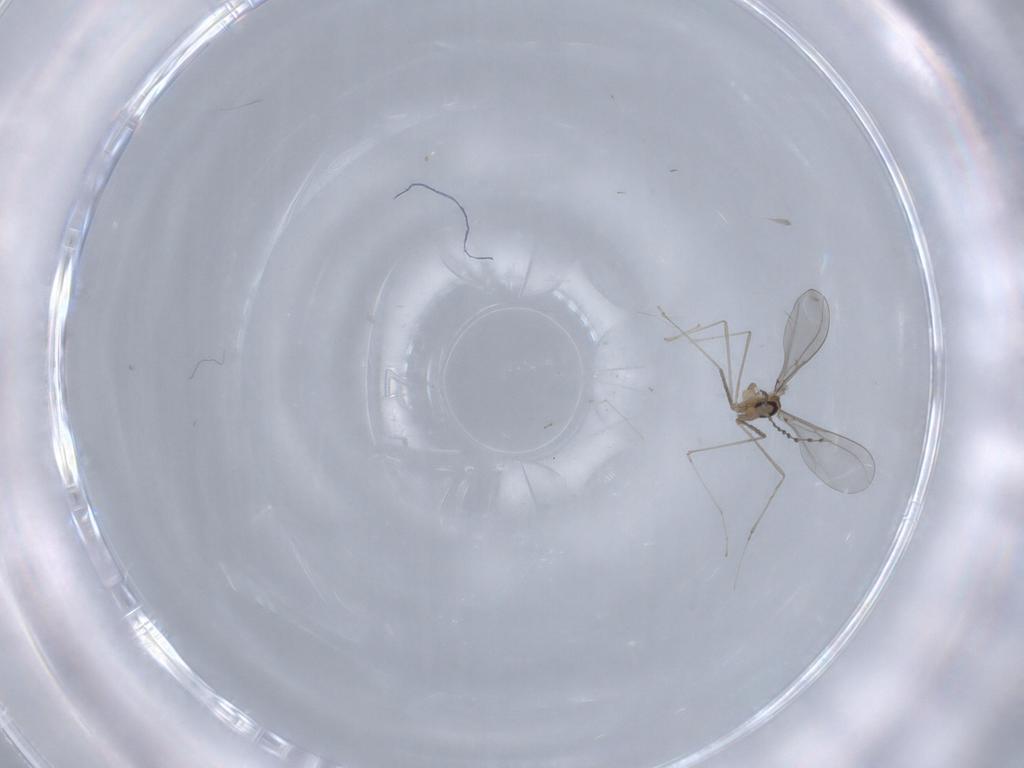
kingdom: Animalia
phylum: Arthropoda
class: Insecta
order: Diptera
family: Cecidomyiidae
